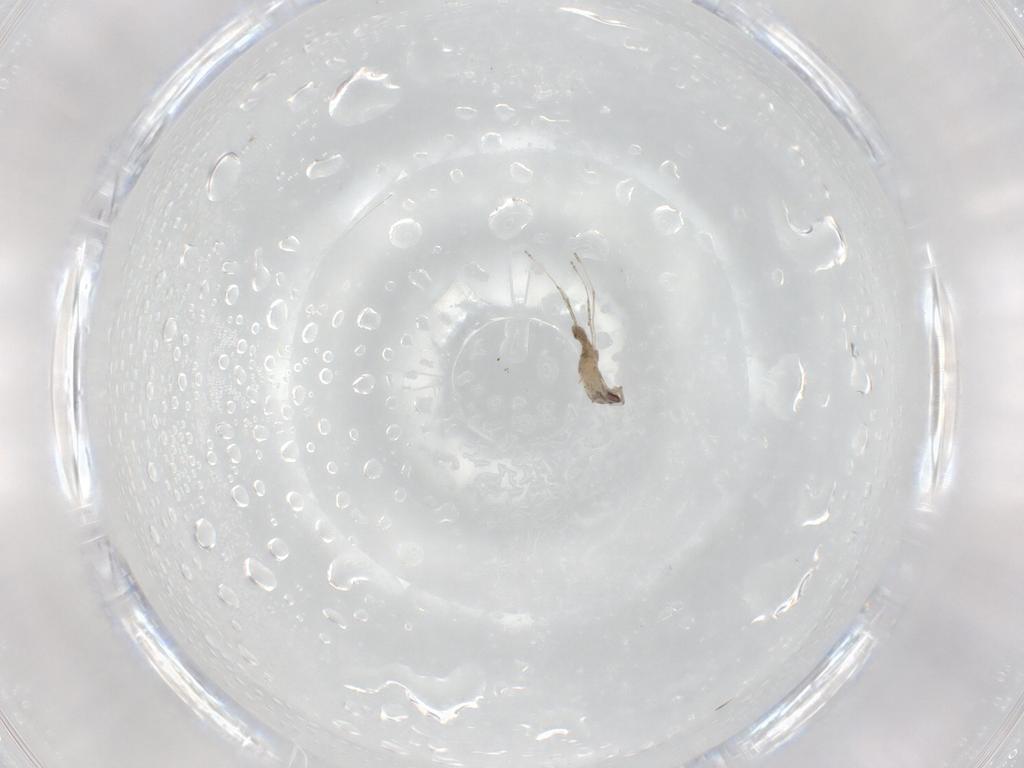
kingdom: Animalia
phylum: Arthropoda
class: Insecta
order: Diptera
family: Cecidomyiidae
